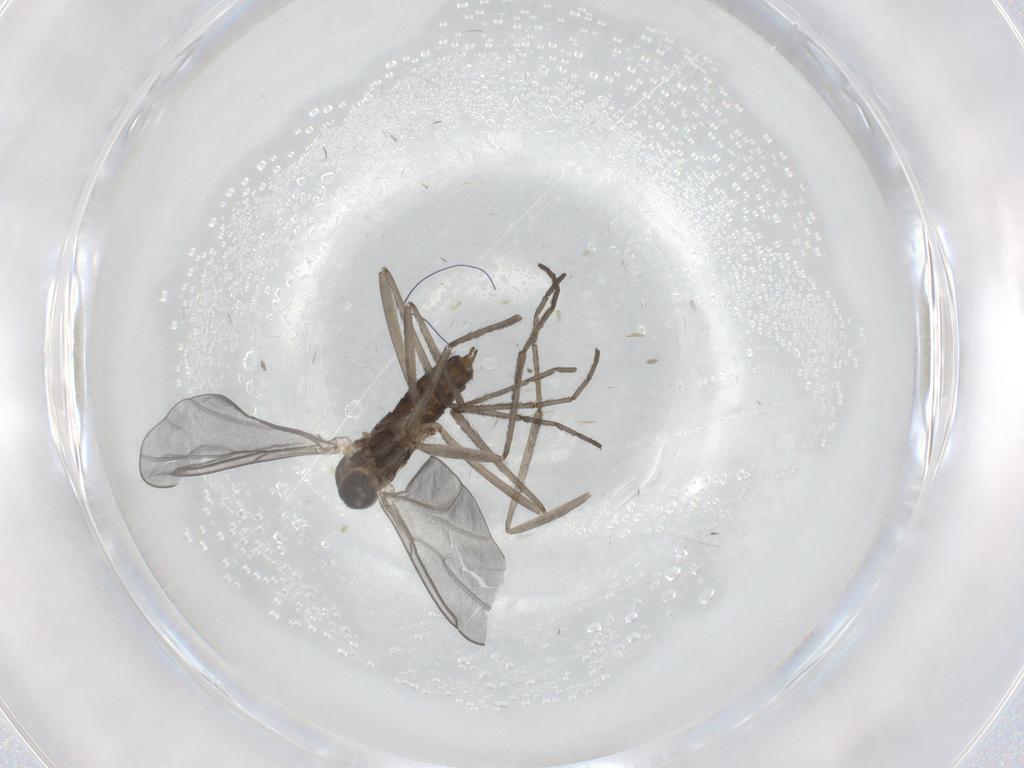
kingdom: Animalia
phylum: Arthropoda
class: Insecta
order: Diptera
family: Cecidomyiidae
